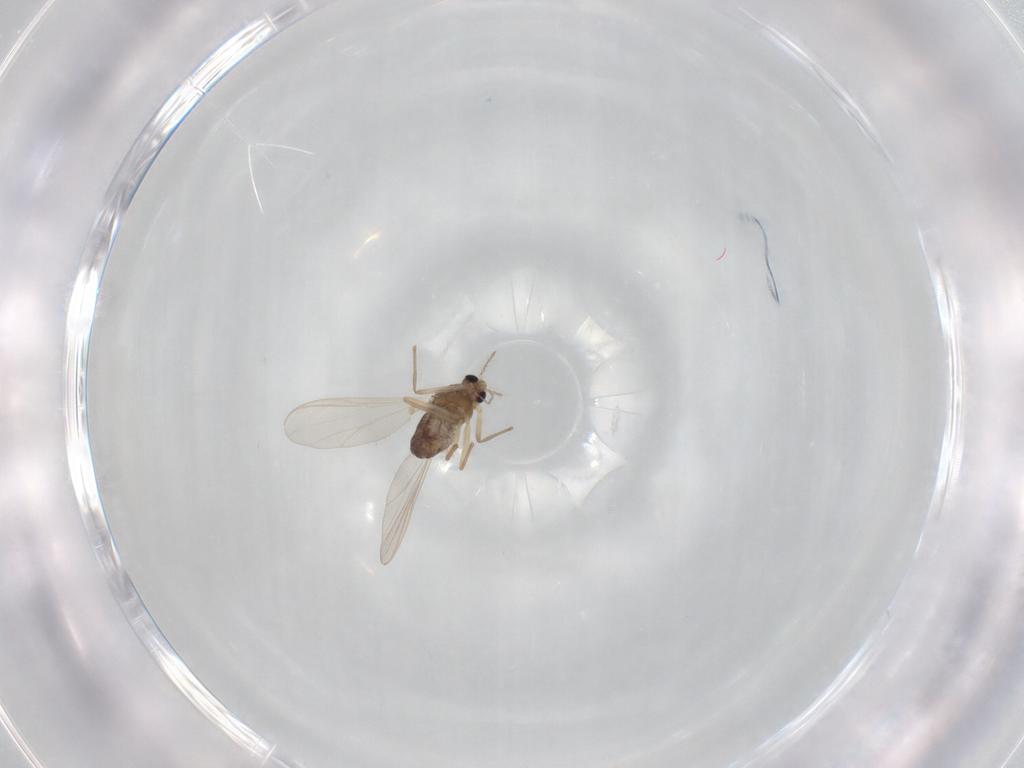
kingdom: Animalia
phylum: Arthropoda
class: Insecta
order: Diptera
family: Chironomidae
